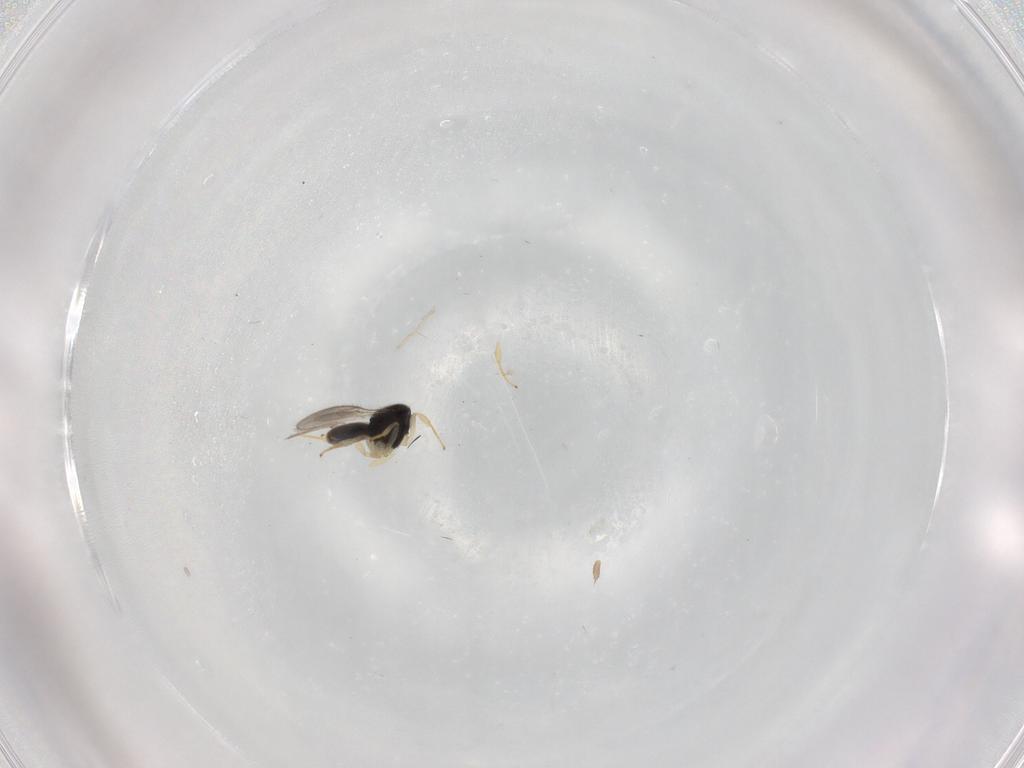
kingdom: Animalia
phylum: Arthropoda
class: Insecta
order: Hymenoptera
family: Scelionidae
